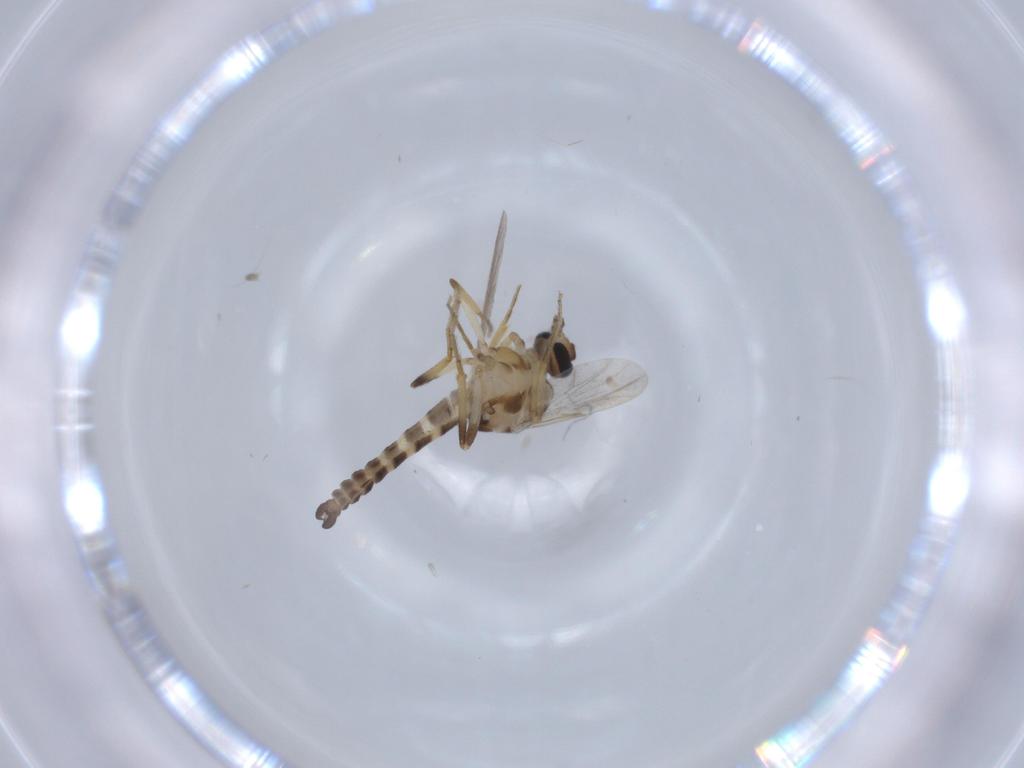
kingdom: Animalia
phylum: Arthropoda
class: Insecta
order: Diptera
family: Ceratopogonidae
